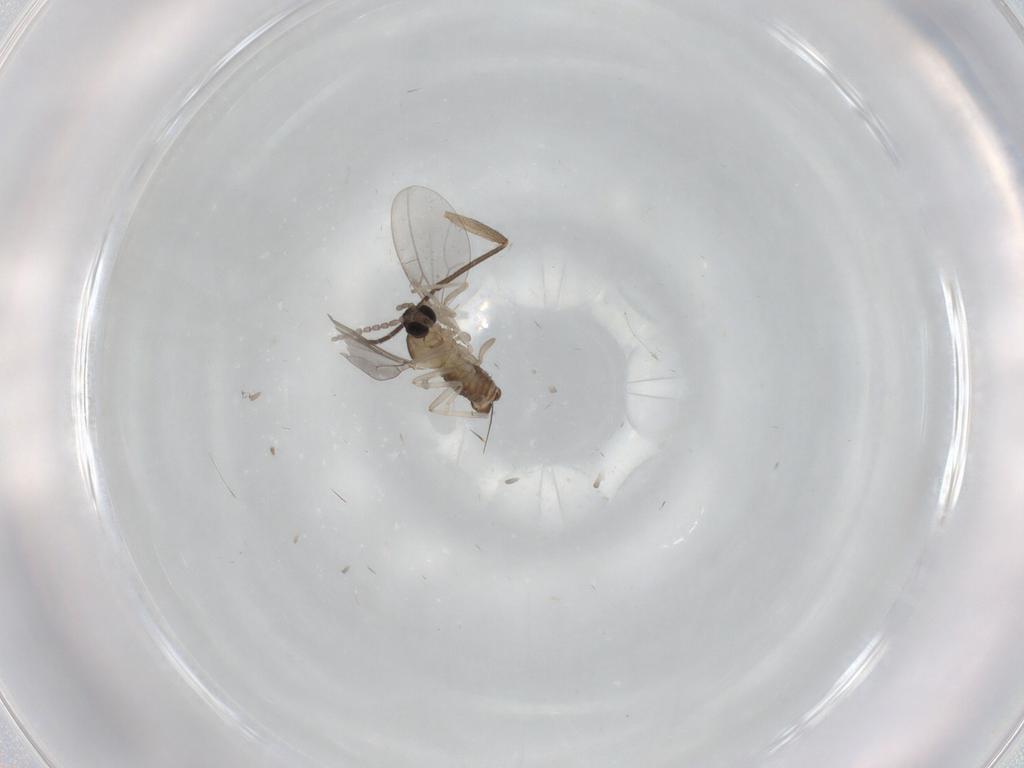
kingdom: Animalia
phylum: Arthropoda
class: Insecta
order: Diptera
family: Cecidomyiidae
